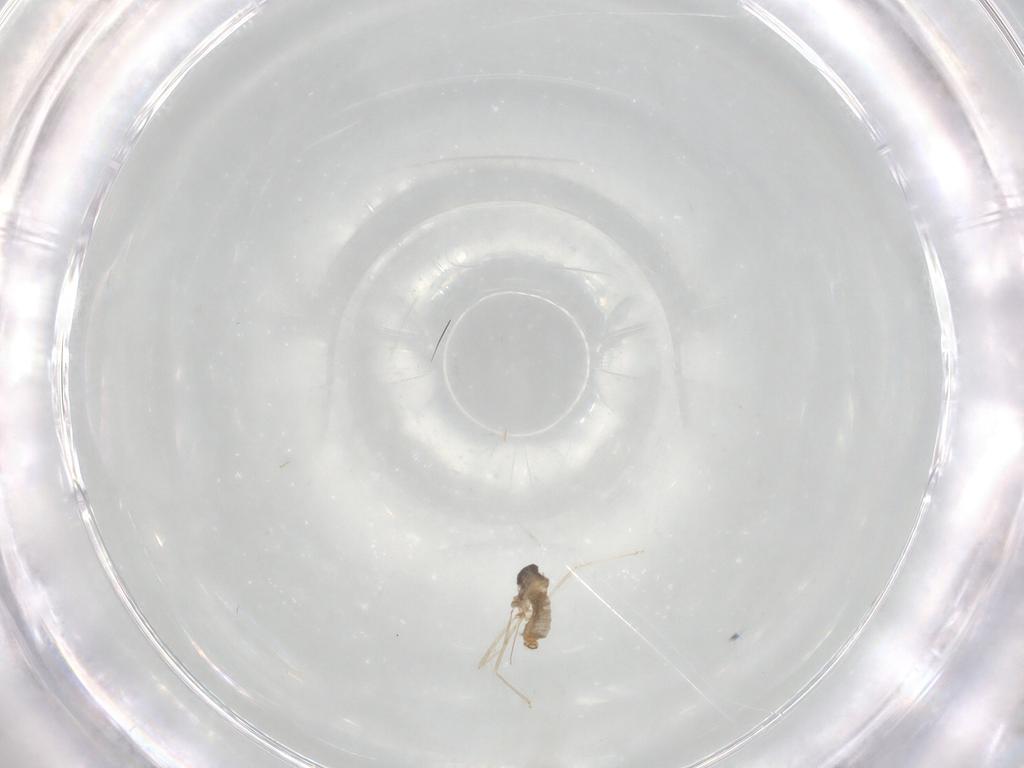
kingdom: Animalia
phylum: Arthropoda
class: Insecta
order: Diptera
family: Cecidomyiidae
